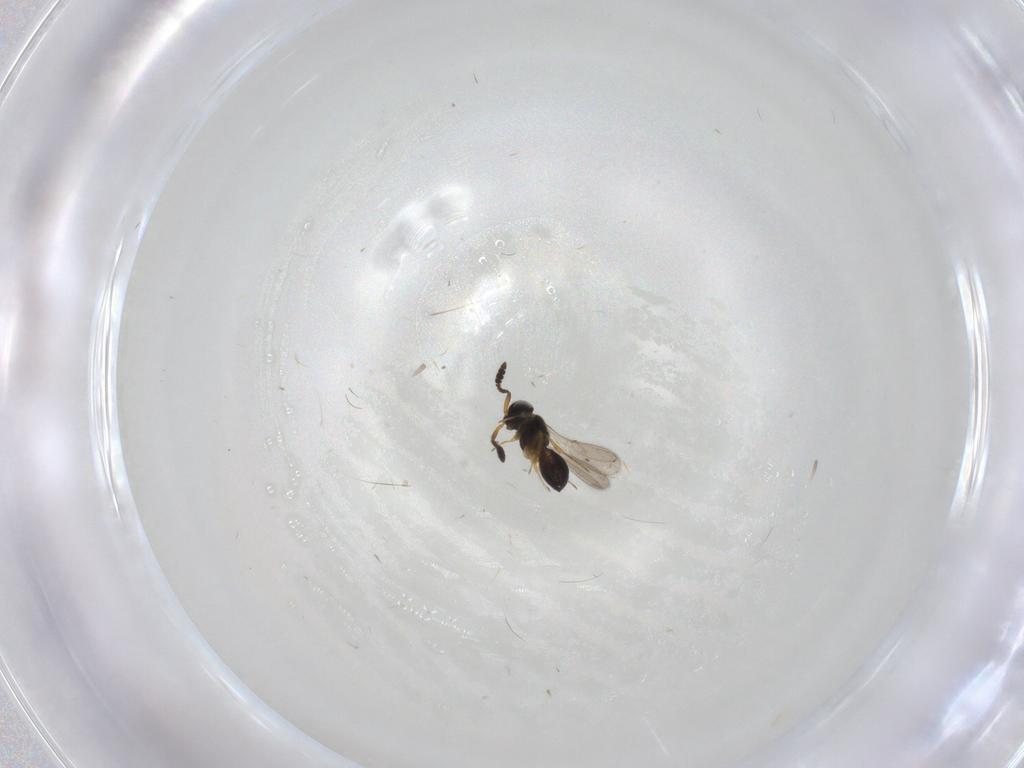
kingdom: Animalia
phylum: Arthropoda
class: Insecta
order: Hymenoptera
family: Scelionidae
